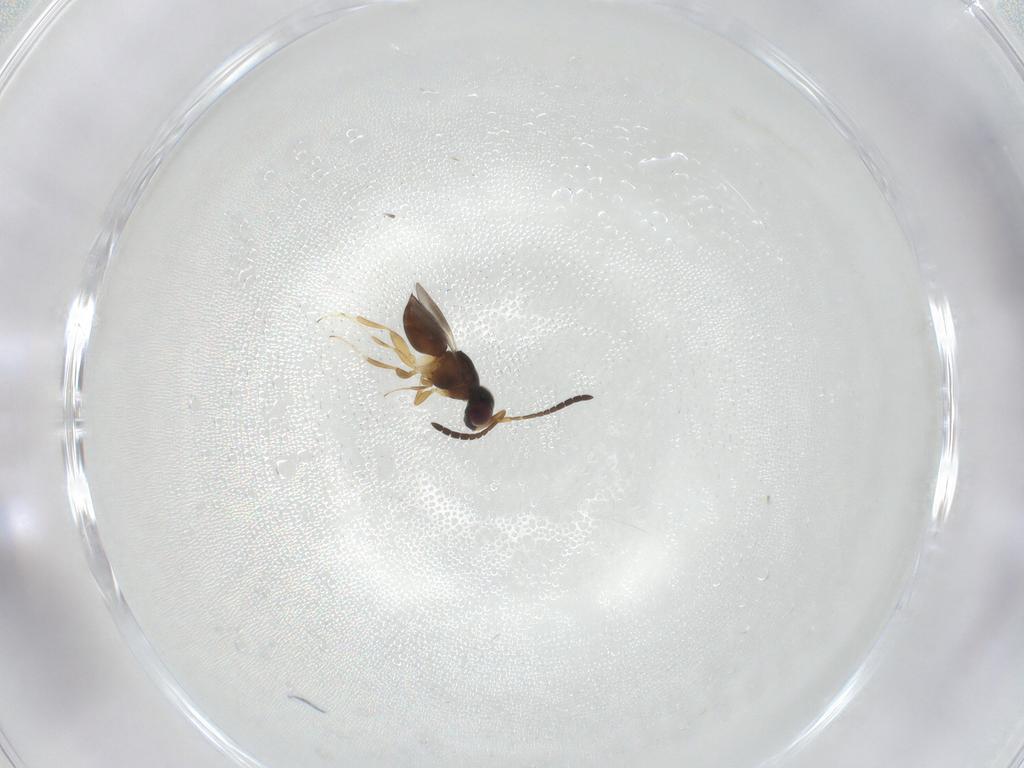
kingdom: Animalia
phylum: Arthropoda
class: Insecta
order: Hymenoptera
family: Ceraphronidae
